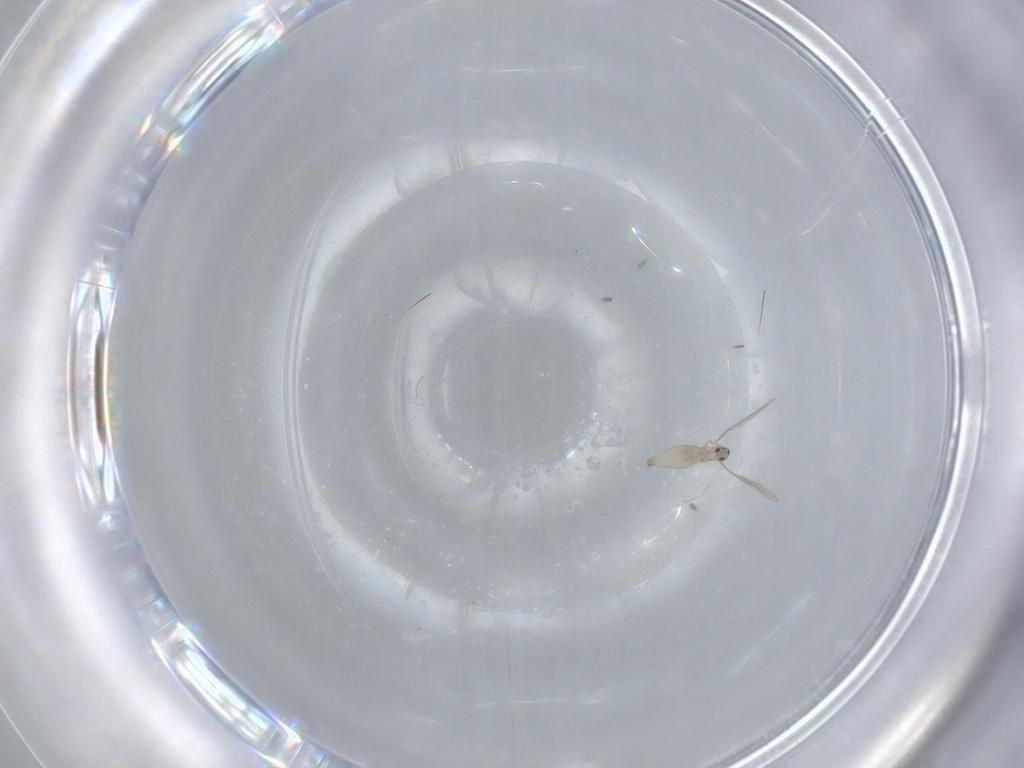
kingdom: Animalia
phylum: Arthropoda
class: Insecta
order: Diptera
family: Cecidomyiidae
